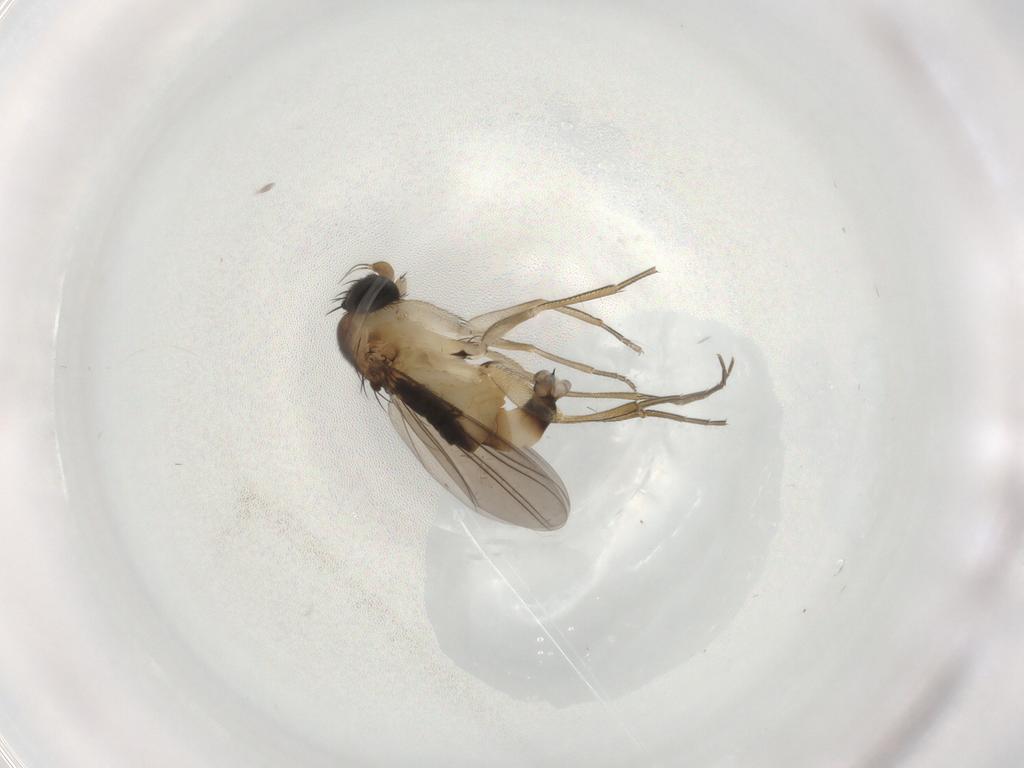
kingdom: Animalia
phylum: Arthropoda
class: Insecta
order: Diptera
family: Phoridae
